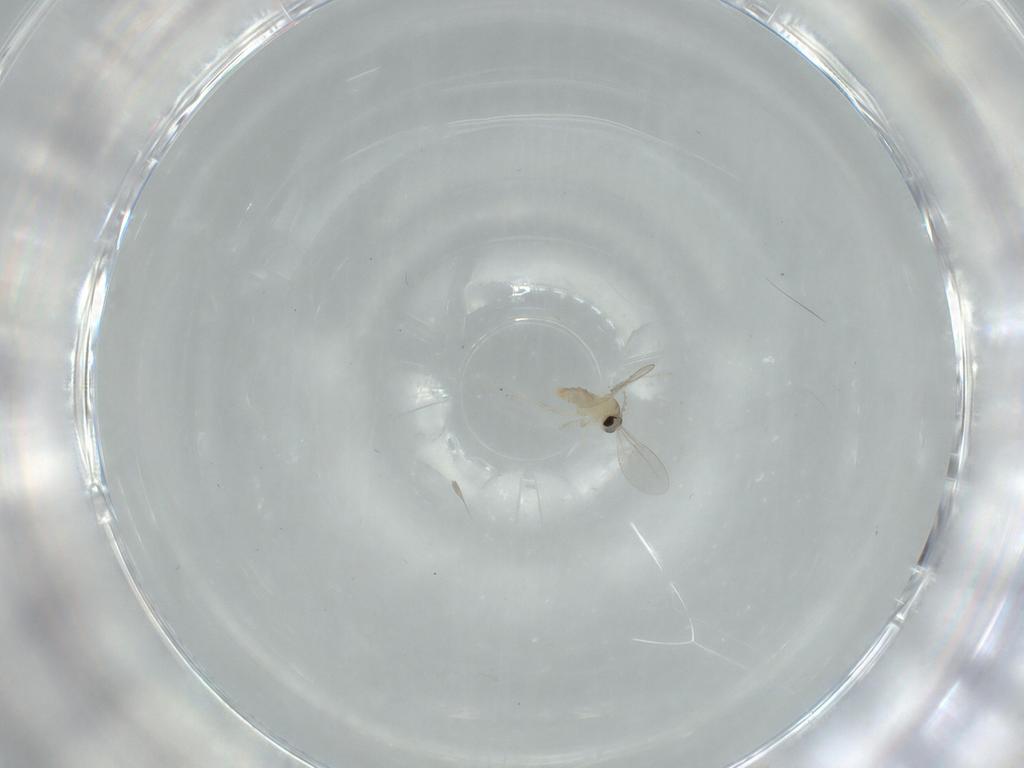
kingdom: Animalia
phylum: Arthropoda
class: Insecta
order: Diptera
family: Cecidomyiidae
